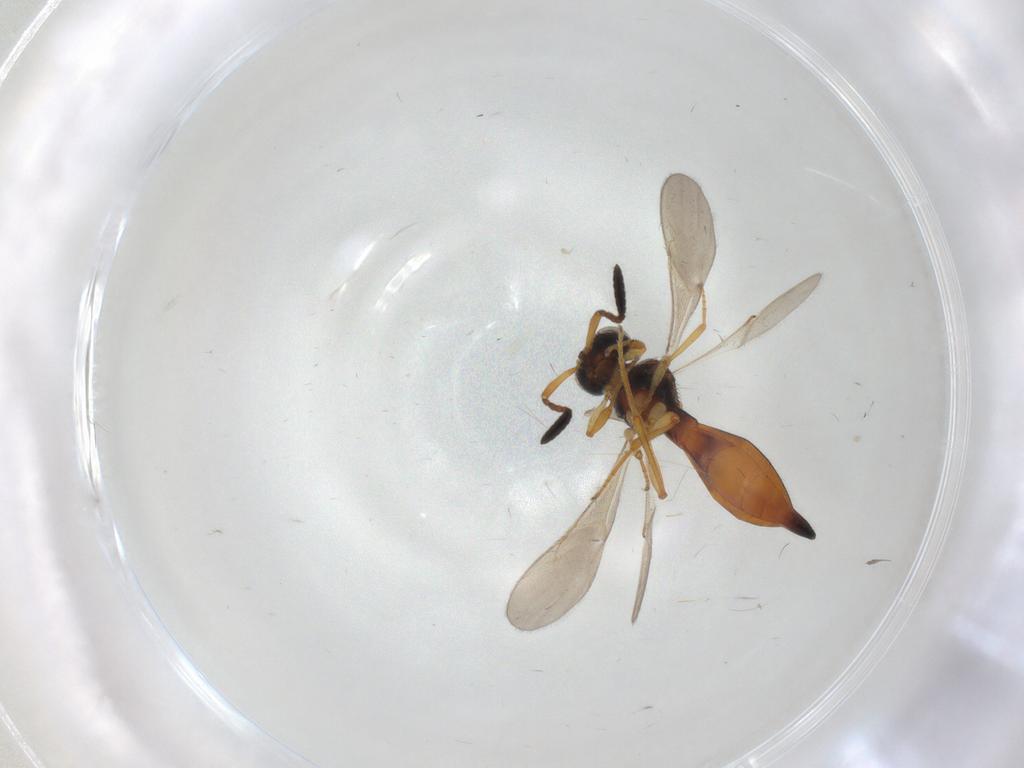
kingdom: Animalia
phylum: Arthropoda
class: Insecta
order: Hymenoptera
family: Scelionidae
